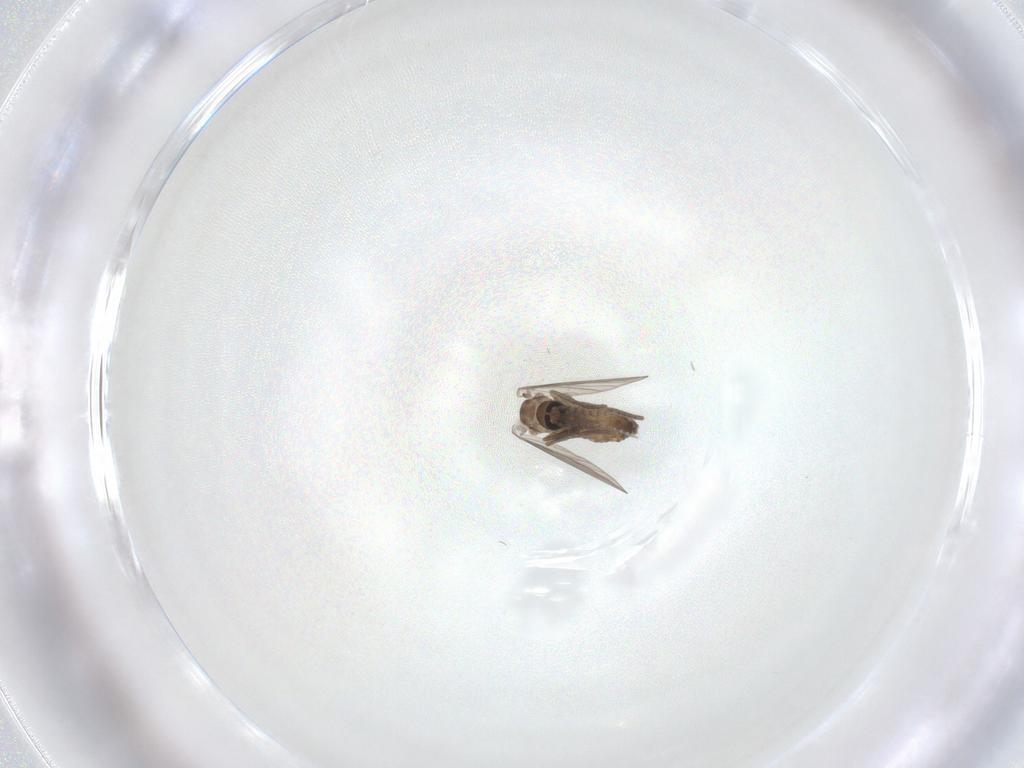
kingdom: Animalia
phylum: Arthropoda
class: Insecta
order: Diptera
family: Psychodidae
